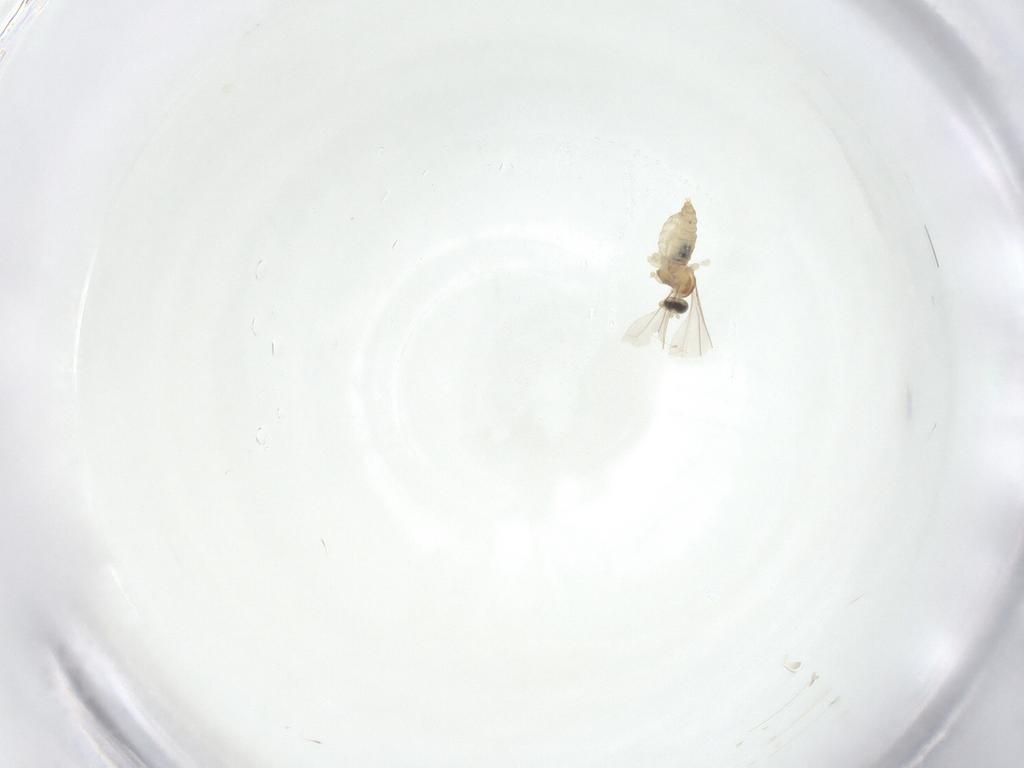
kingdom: Animalia
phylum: Arthropoda
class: Insecta
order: Diptera
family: Cecidomyiidae
